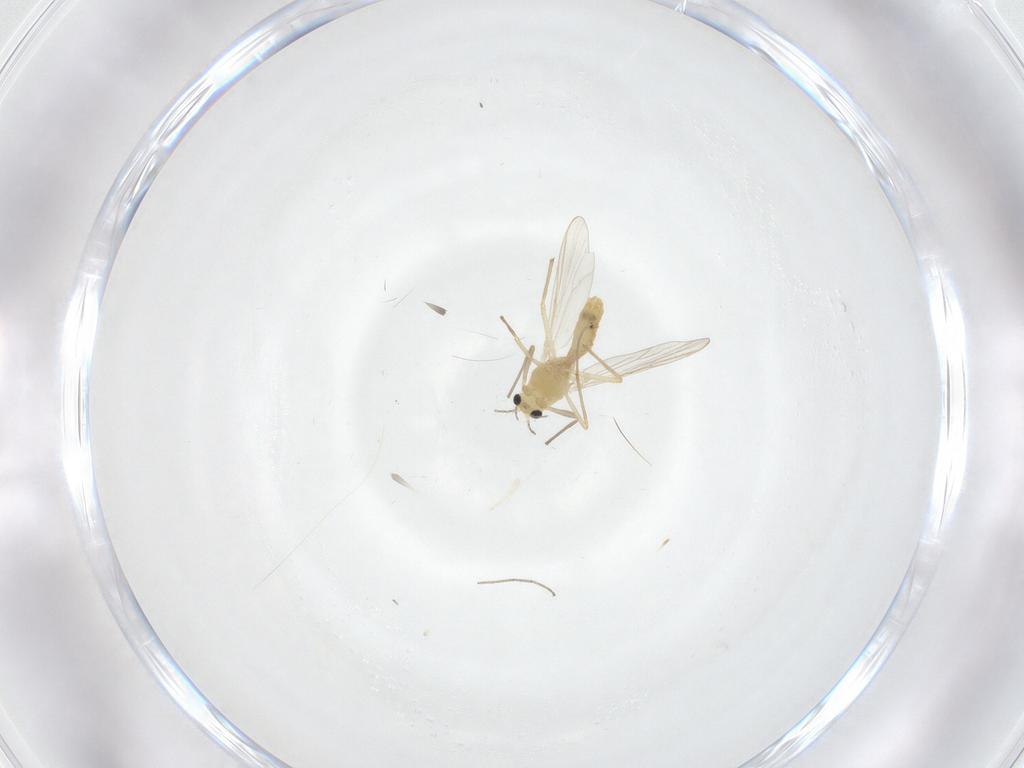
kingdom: Animalia
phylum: Arthropoda
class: Insecta
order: Diptera
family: Chironomidae
